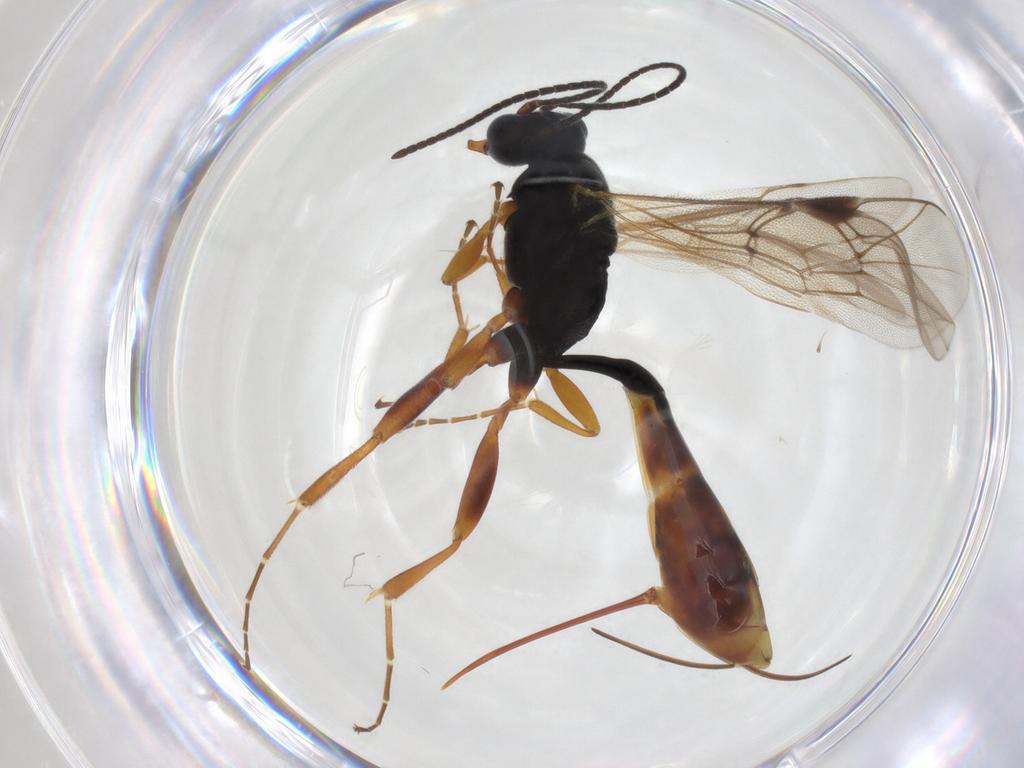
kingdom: Animalia
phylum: Arthropoda
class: Insecta
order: Hymenoptera
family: Ichneumonidae
